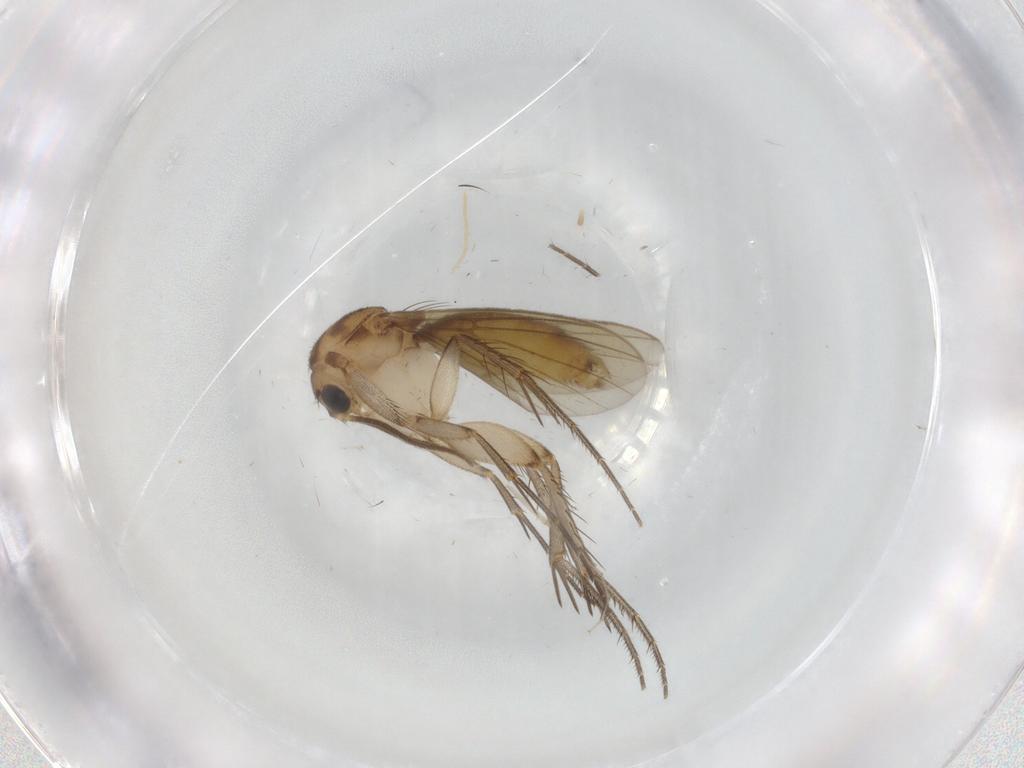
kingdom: Animalia
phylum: Arthropoda
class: Insecta
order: Diptera
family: Mycetophilidae
